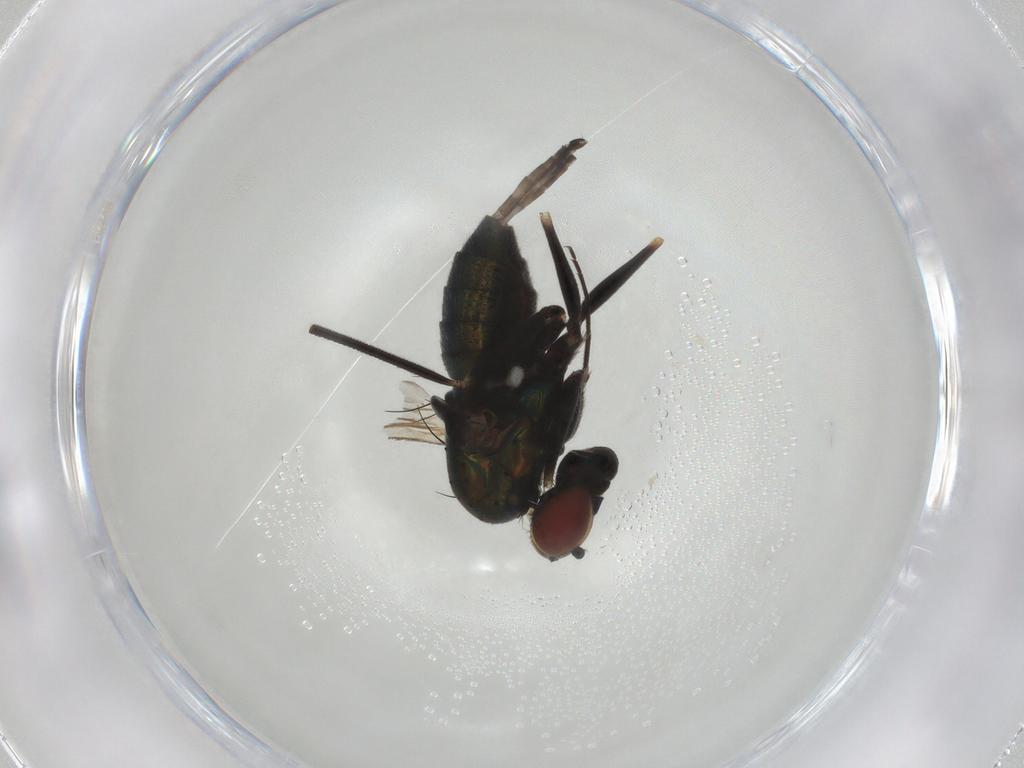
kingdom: Animalia
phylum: Arthropoda
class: Insecta
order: Diptera
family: Dolichopodidae
